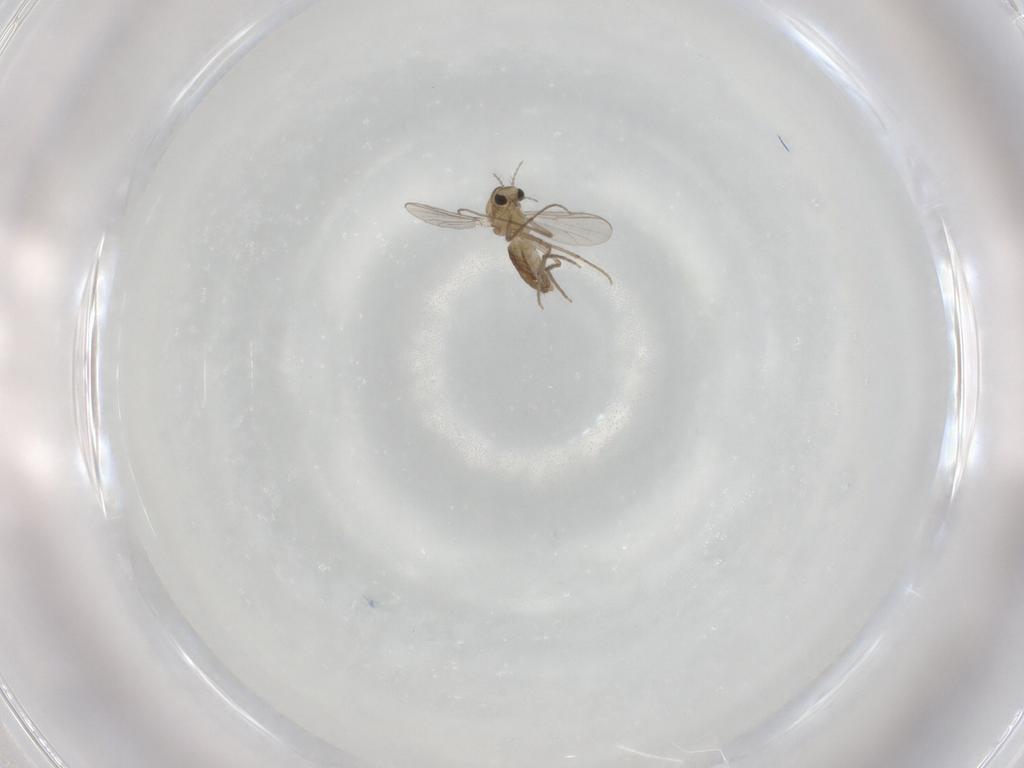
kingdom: Animalia
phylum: Arthropoda
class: Insecta
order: Diptera
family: Chironomidae
